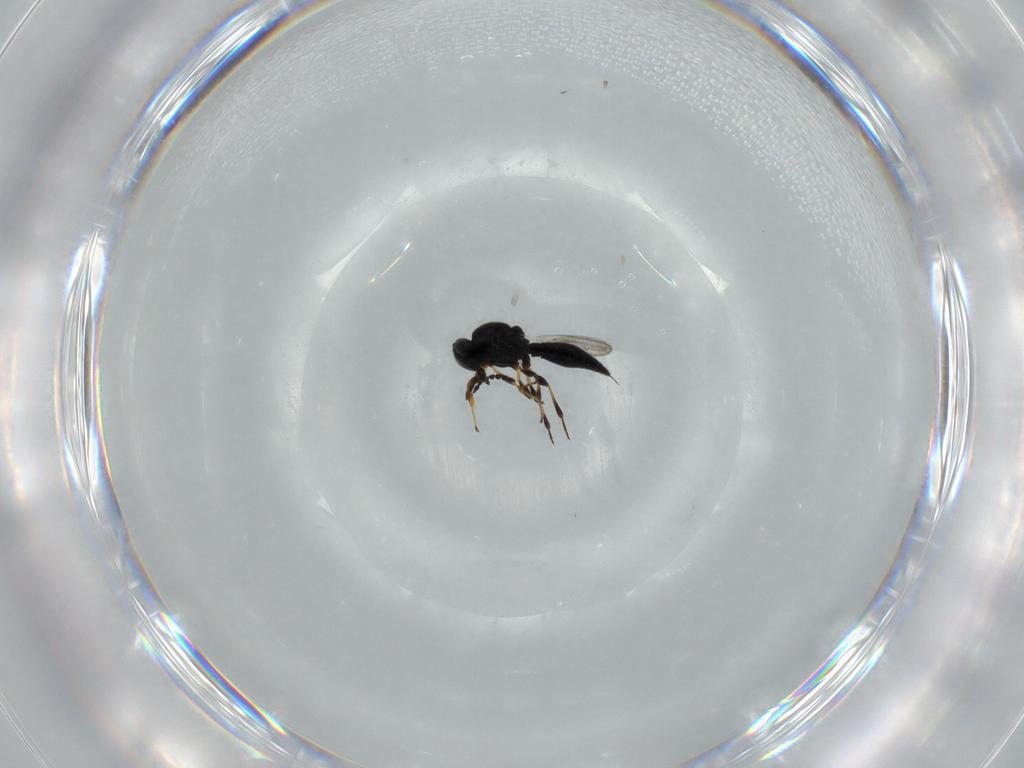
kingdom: Animalia
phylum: Arthropoda
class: Insecta
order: Hymenoptera
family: Platygastridae
